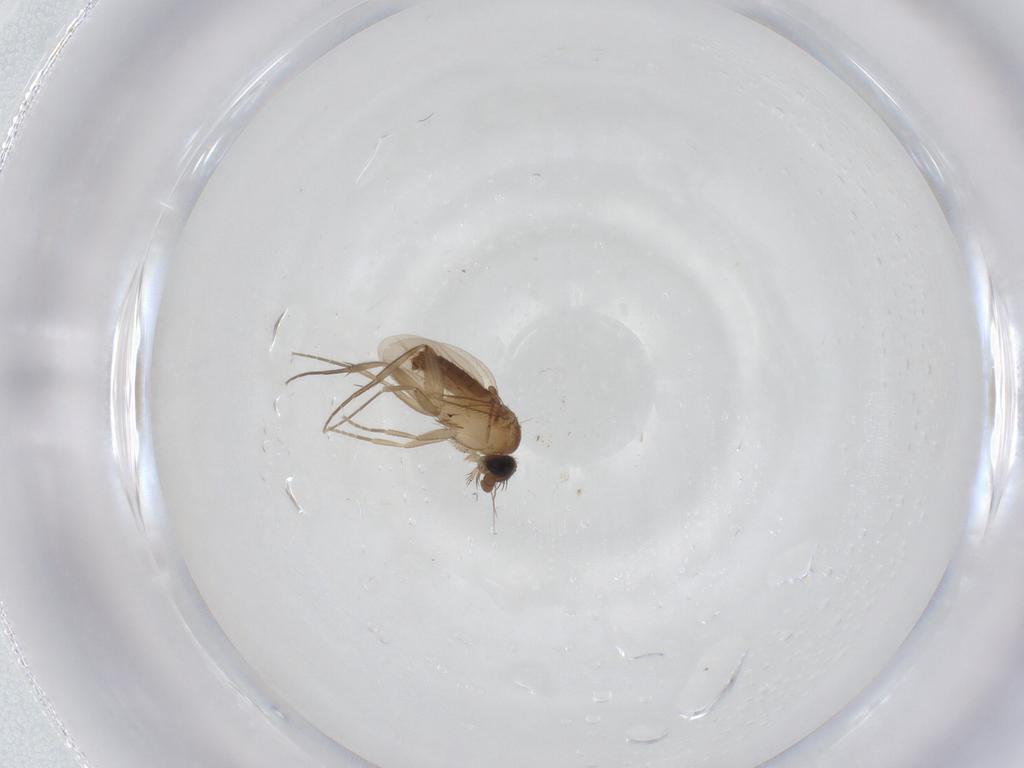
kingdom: Animalia
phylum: Arthropoda
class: Insecta
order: Diptera
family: Phoridae
